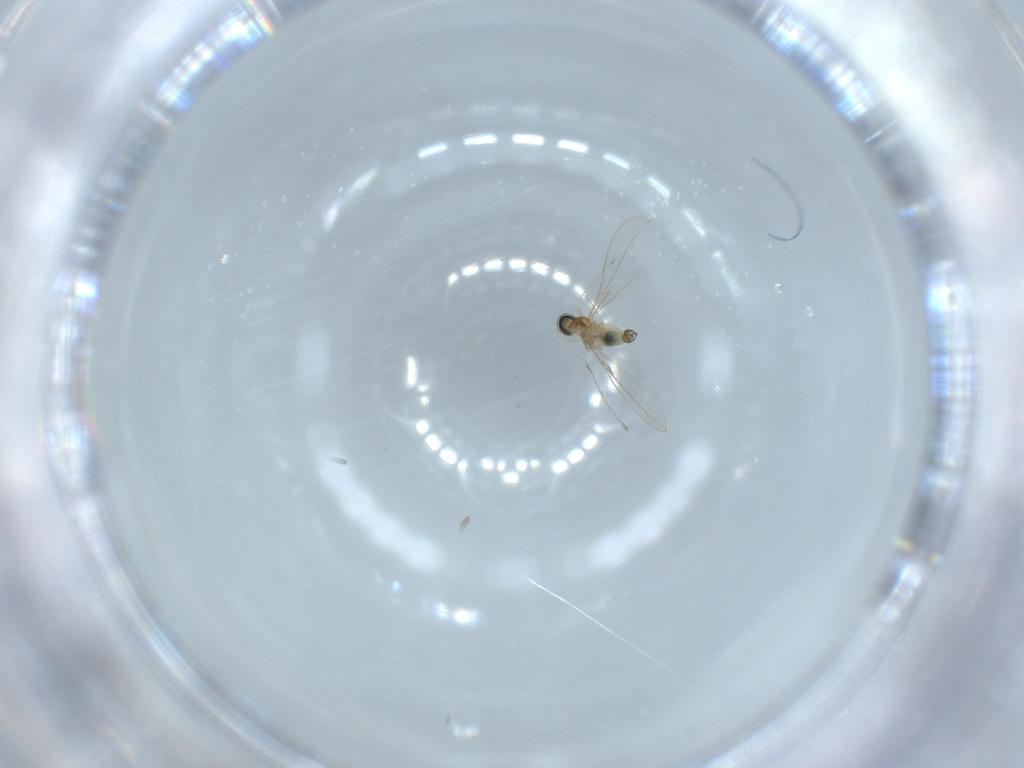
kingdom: Animalia
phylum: Arthropoda
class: Insecta
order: Diptera
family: Cecidomyiidae
